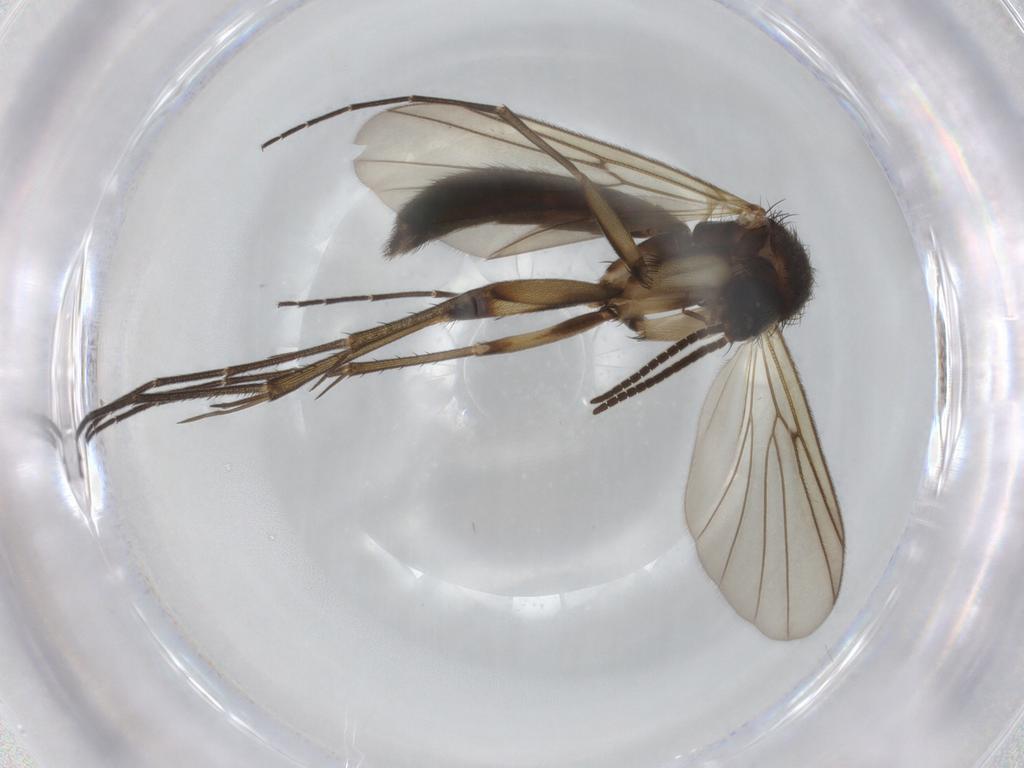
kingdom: Animalia
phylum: Arthropoda
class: Insecta
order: Diptera
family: Mycetophilidae
